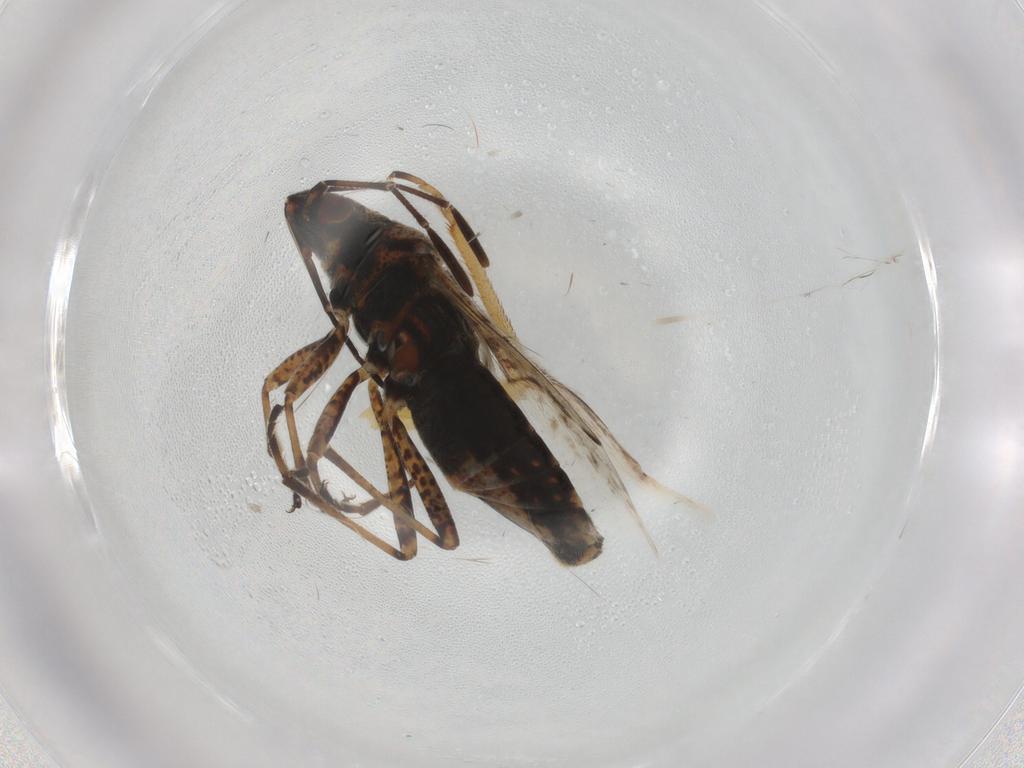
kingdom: Animalia
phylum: Arthropoda
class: Insecta
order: Hemiptera
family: Lygaeidae
